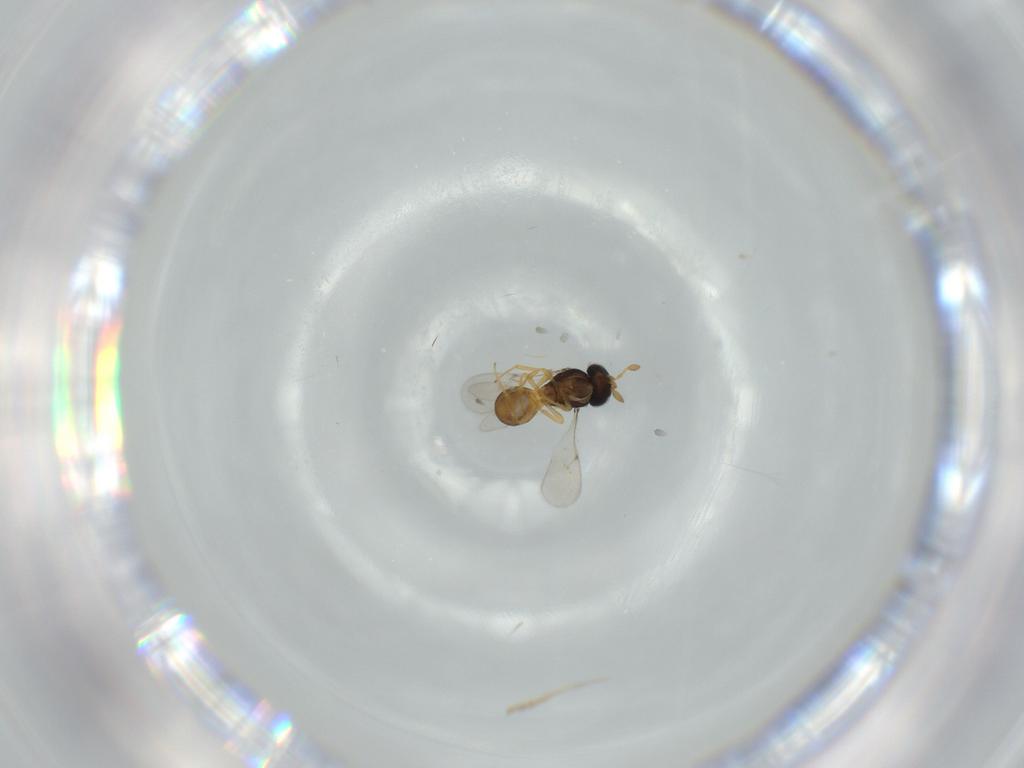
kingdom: Animalia
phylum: Arthropoda
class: Insecta
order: Hymenoptera
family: Scelionidae
